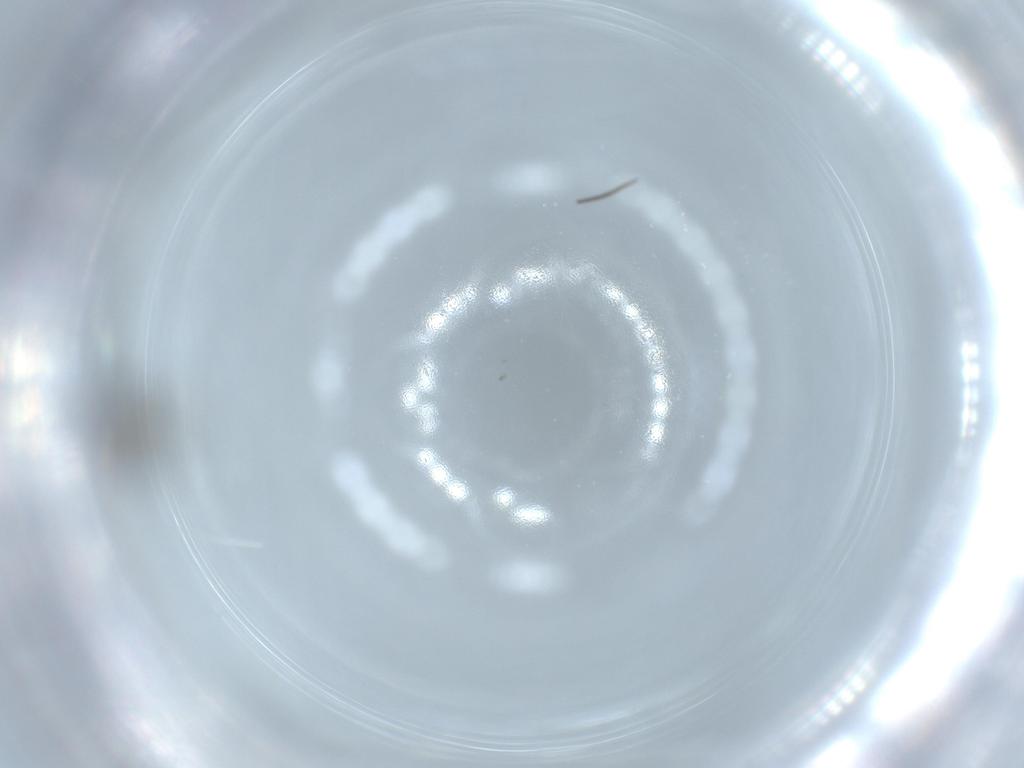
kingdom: Animalia
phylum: Arthropoda
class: Insecta
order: Diptera
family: Sciaridae
